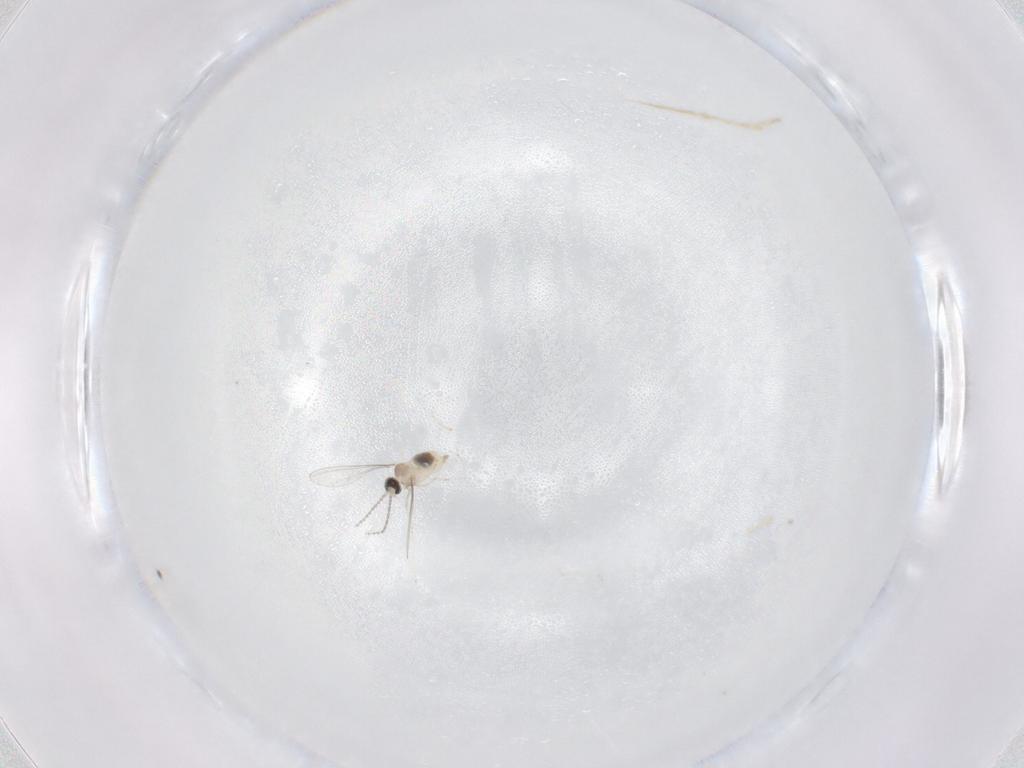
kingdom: Animalia
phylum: Arthropoda
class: Insecta
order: Diptera
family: Cecidomyiidae
